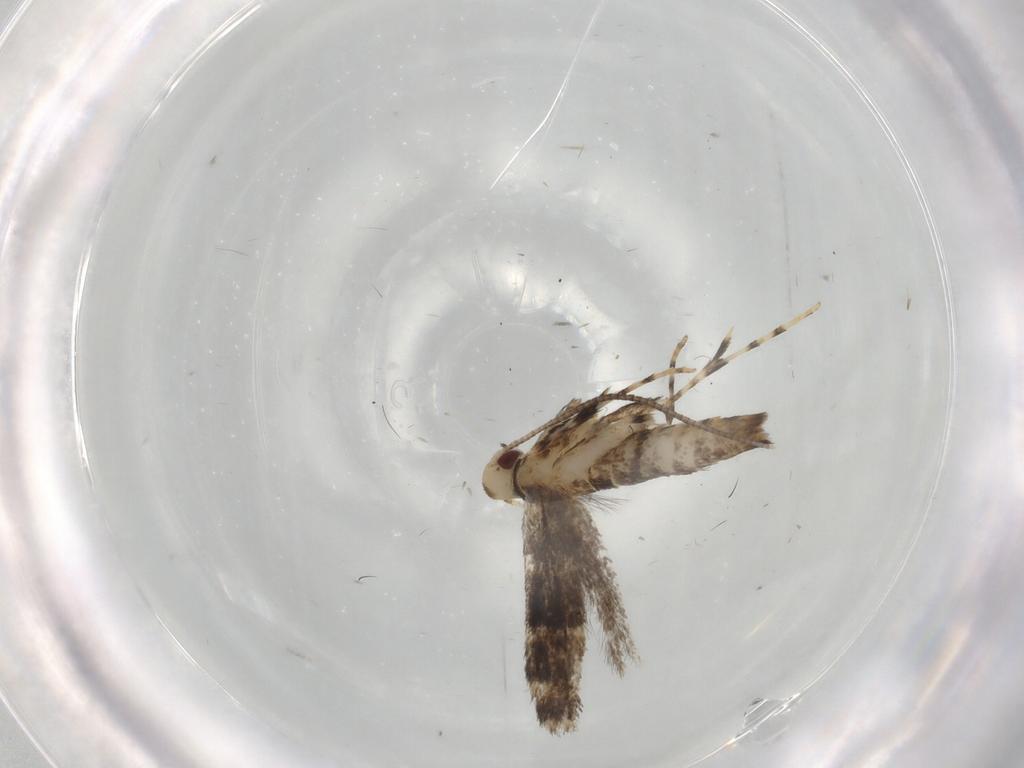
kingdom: Animalia
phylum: Arthropoda
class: Insecta
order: Lepidoptera
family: Gracillariidae
